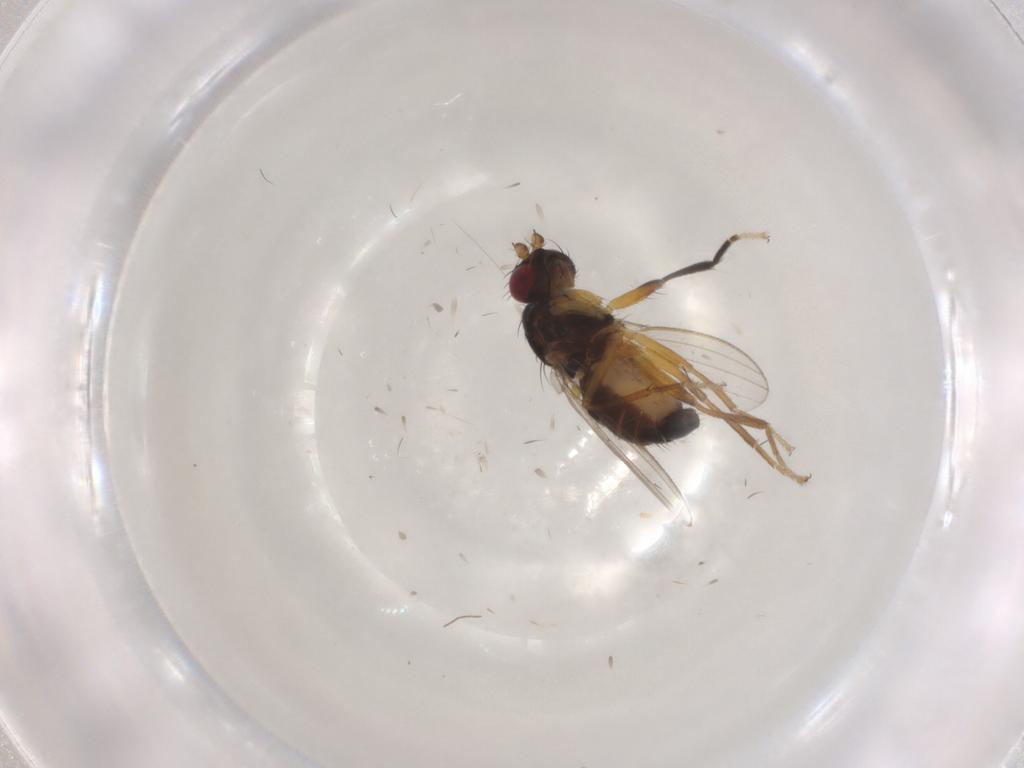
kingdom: Animalia
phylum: Arthropoda
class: Insecta
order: Diptera
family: Cypselosomatidae
